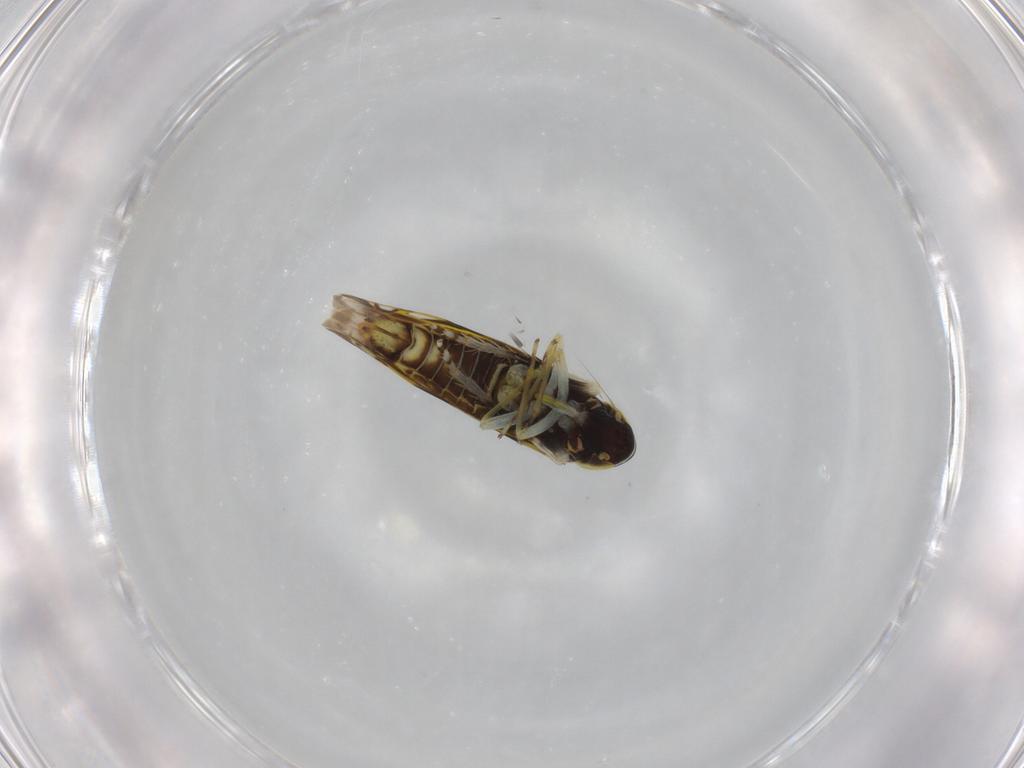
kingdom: Animalia
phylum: Arthropoda
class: Insecta
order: Hemiptera
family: Cicadellidae
